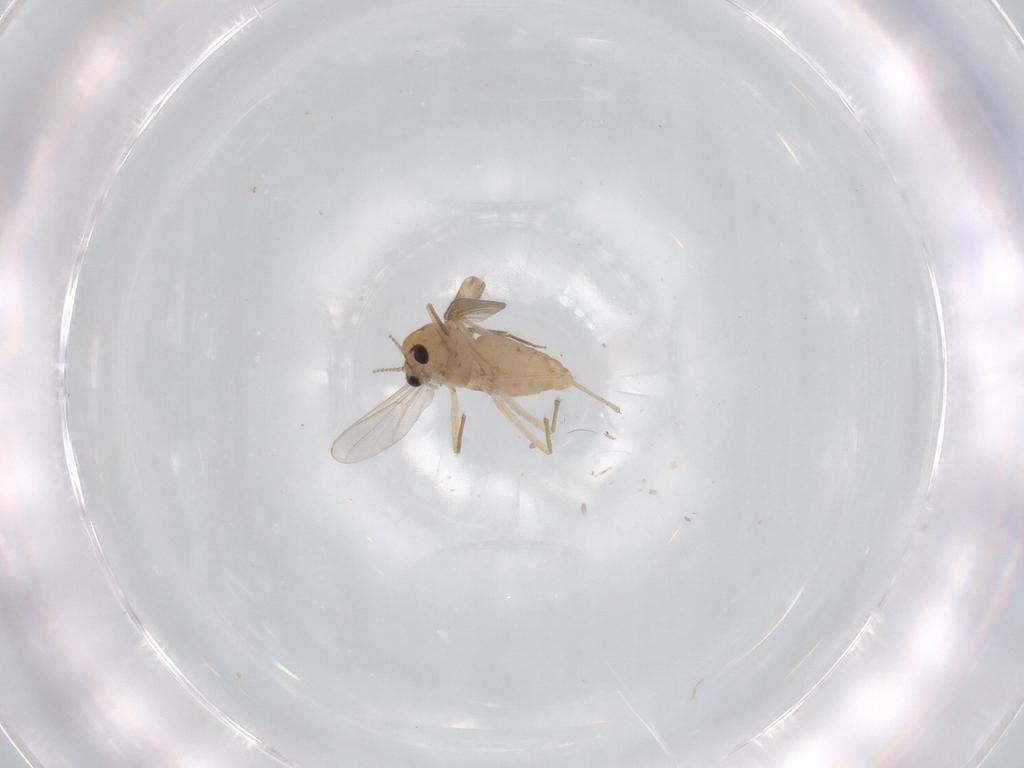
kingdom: Animalia
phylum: Arthropoda
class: Insecta
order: Diptera
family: Chironomidae
